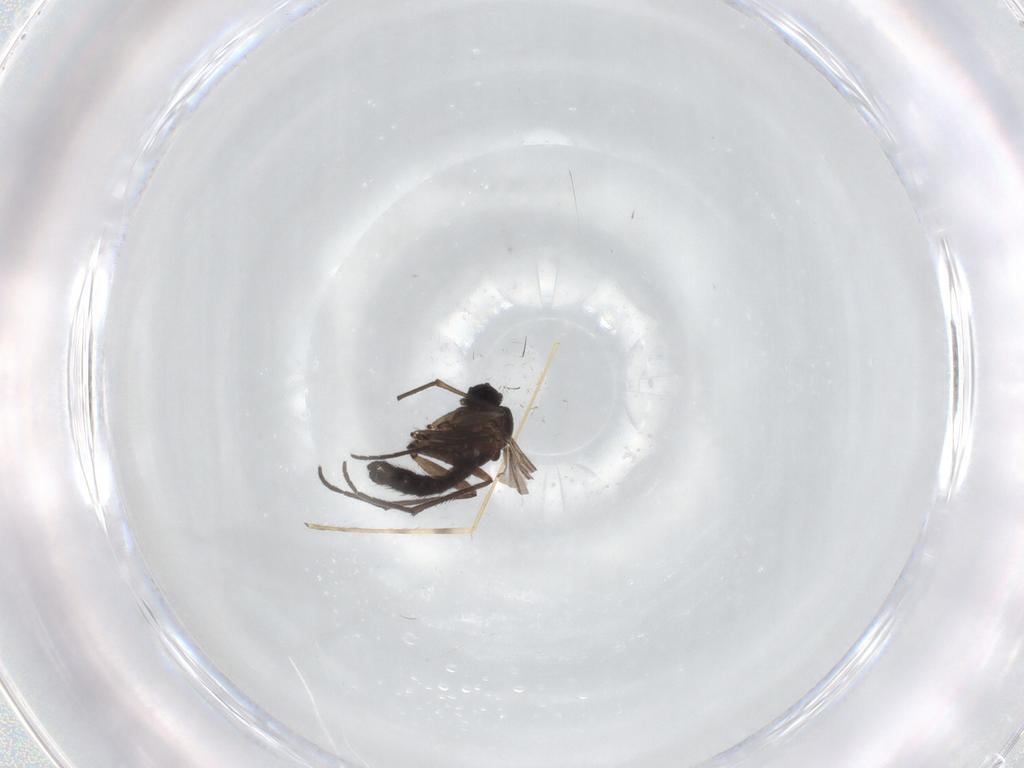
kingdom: Animalia
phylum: Arthropoda
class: Insecta
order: Diptera
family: Sciaridae
